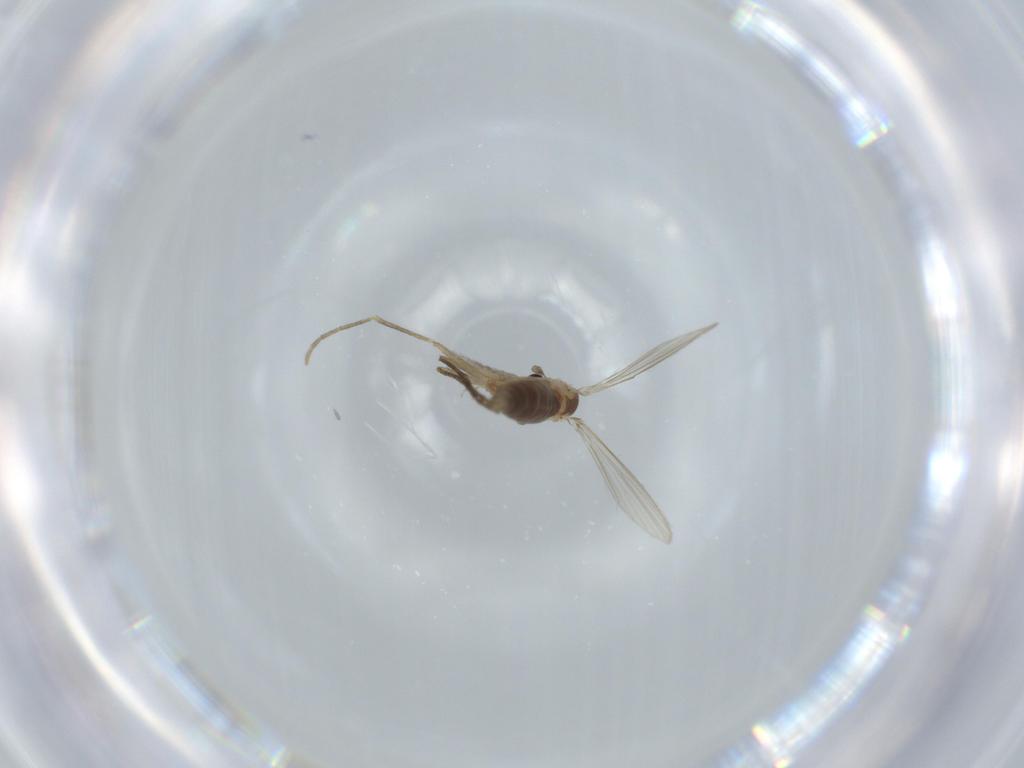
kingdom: Animalia
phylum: Arthropoda
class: Insecta
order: Diptera
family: Psychodidae
